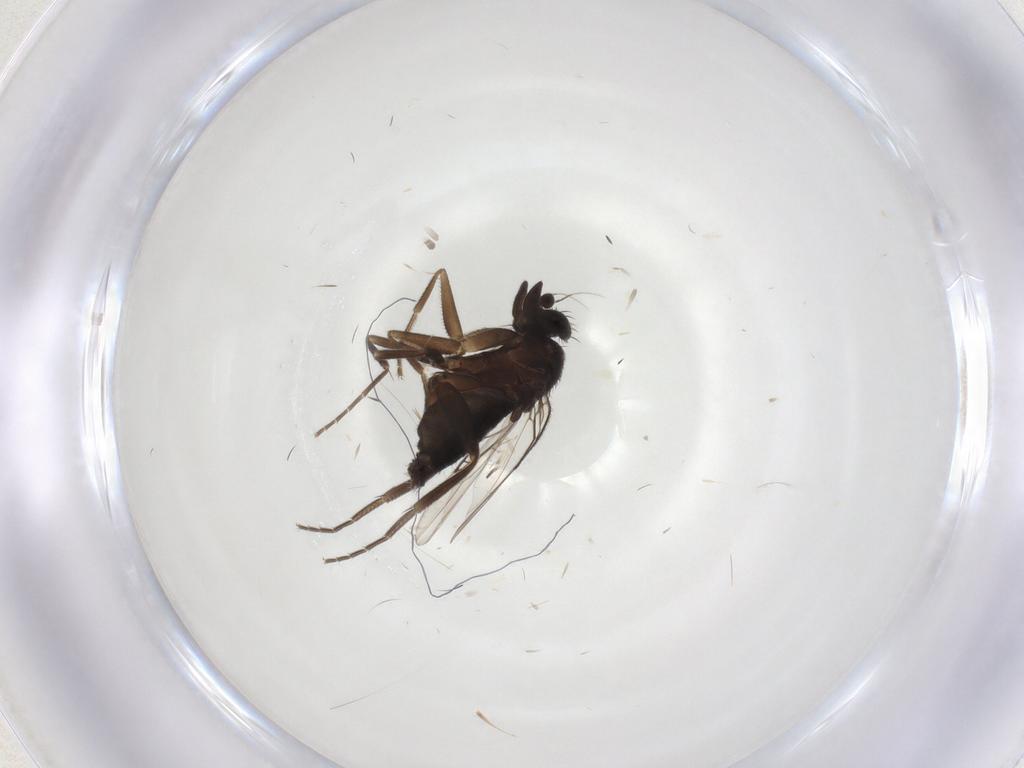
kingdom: Animalia
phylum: Arthropoda
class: Insecta
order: Diptera
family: Phoridae
